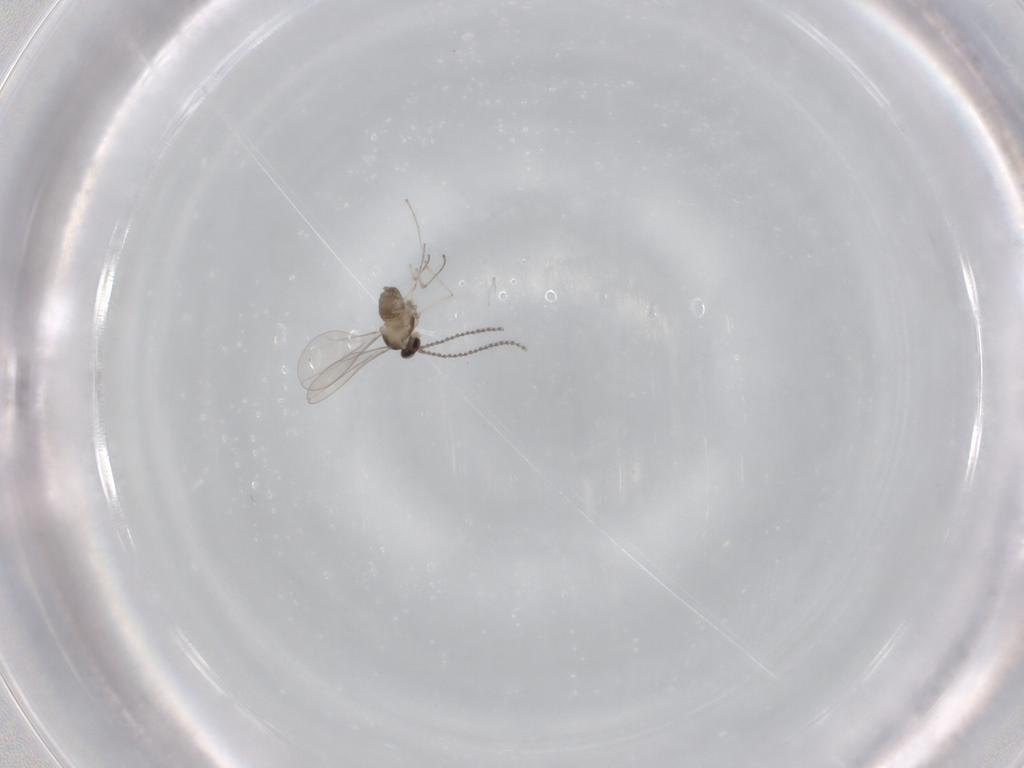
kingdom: Animalia
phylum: Arthropoda
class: Insecta
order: Diptera
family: Cecidomyiidae
